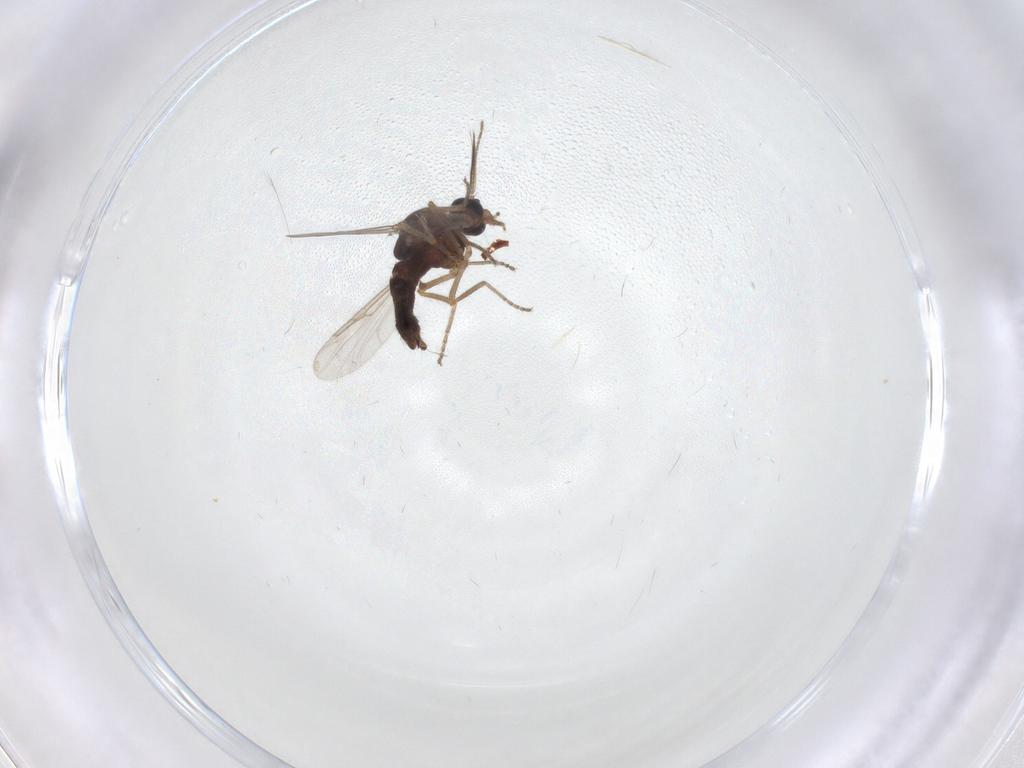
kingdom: Animalia
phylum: Arthropoda
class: Insecta
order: Diptera
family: Ceratopogonidae
